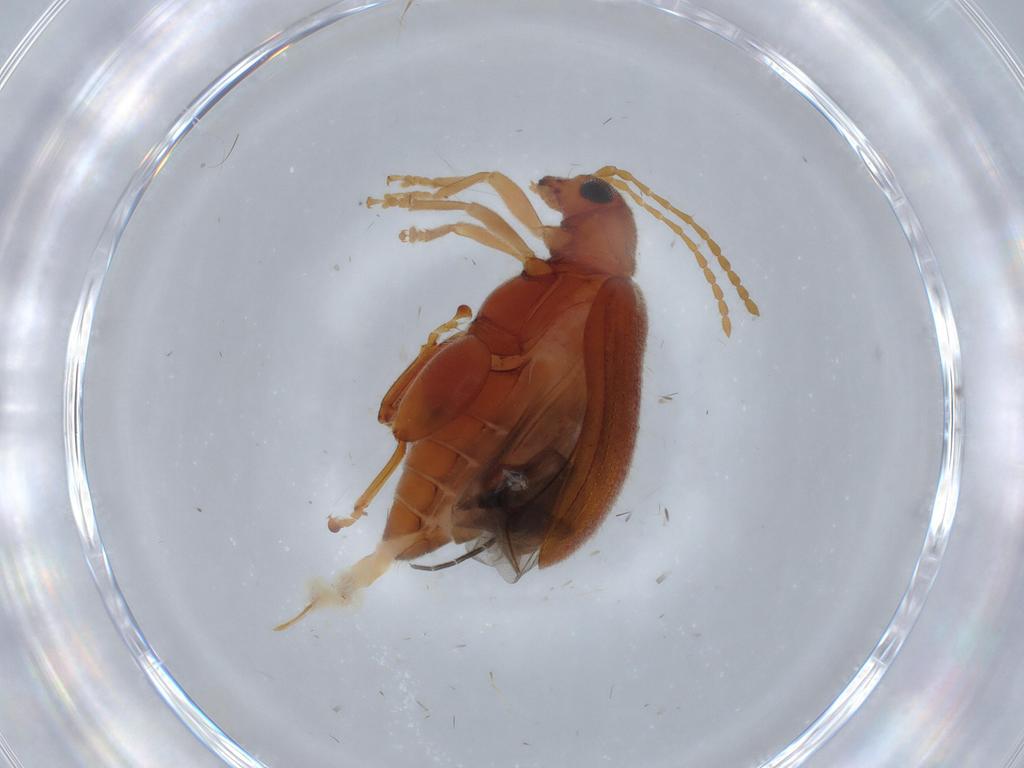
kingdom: Animalia
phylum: Arthropoda
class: Insecta
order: Coleoptera
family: Chrysomelidae
